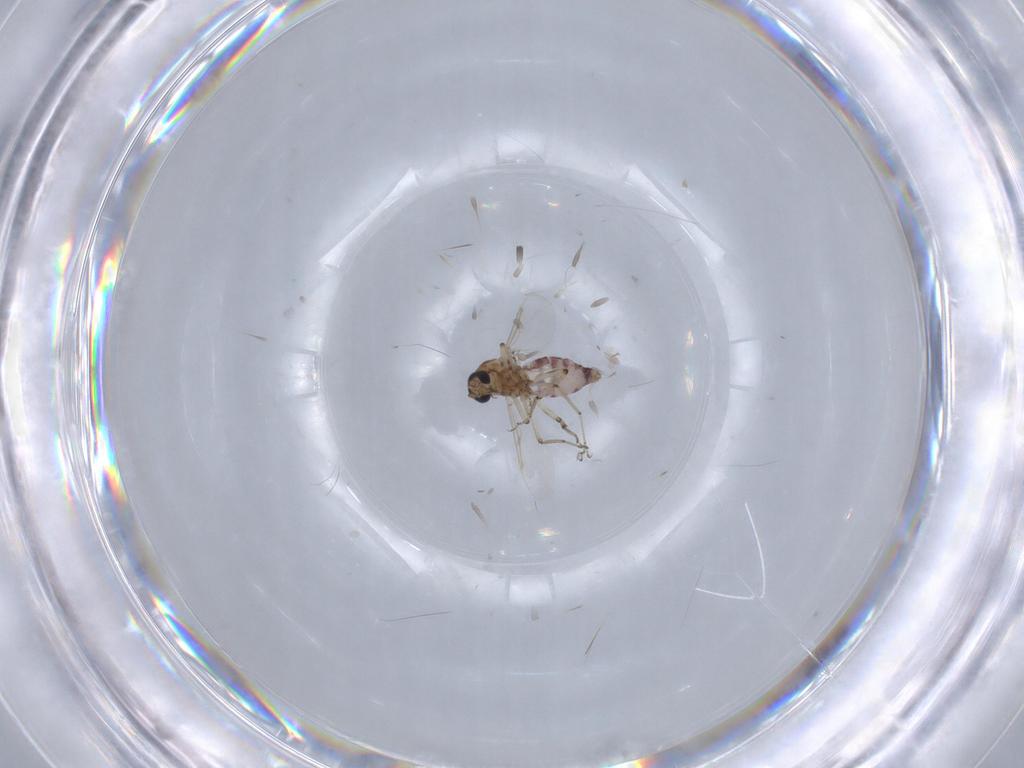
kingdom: Animalia
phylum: Arthropoda
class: Insecta
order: Diptera
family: Ceratopogonidae
